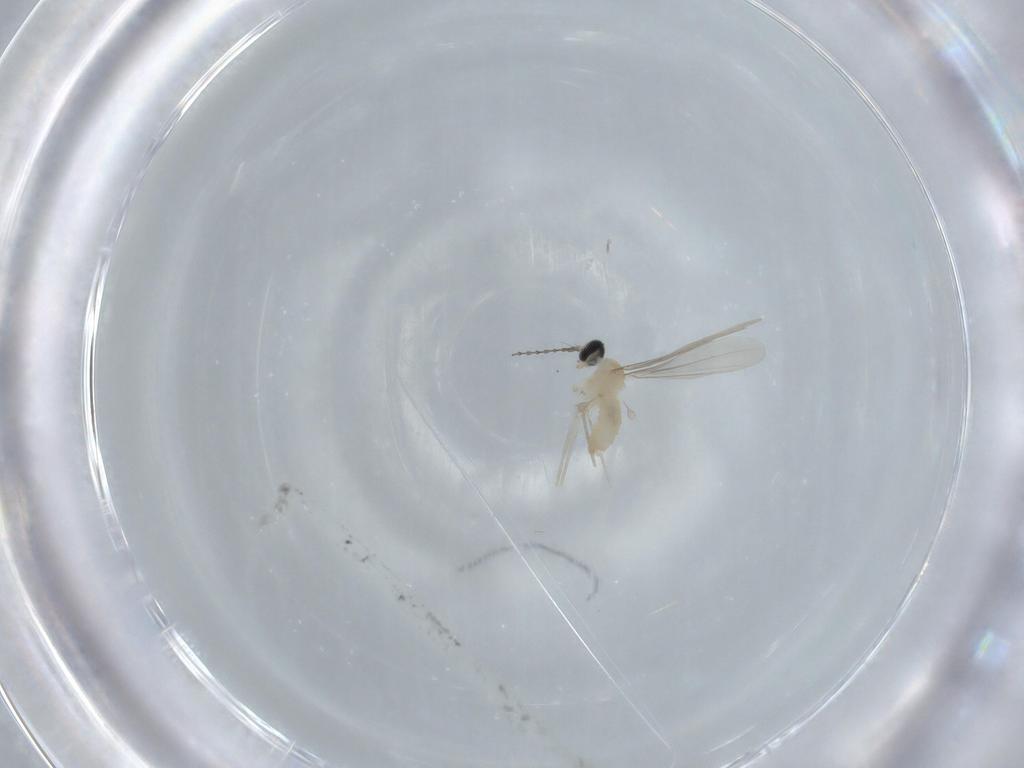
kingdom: Animalia
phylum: Arthropoda
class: Insecta
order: Diptera
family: Cecidomyiidae
